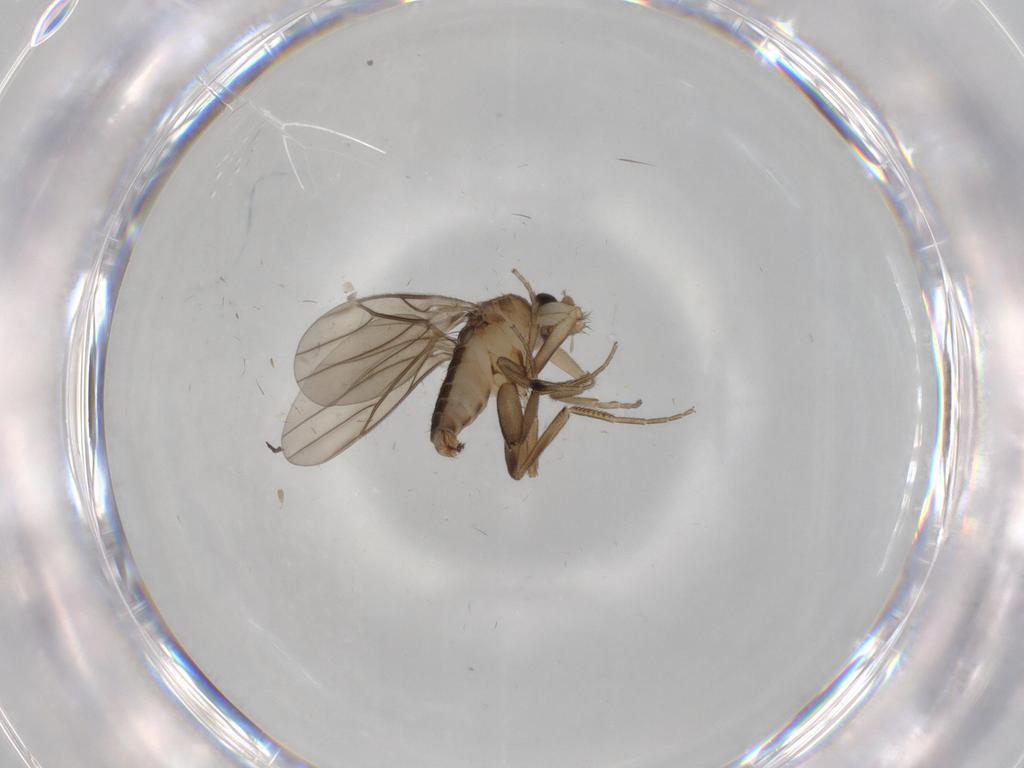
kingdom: Animalia
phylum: Arthropoda
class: Insecta
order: Diptera
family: Phoridae
